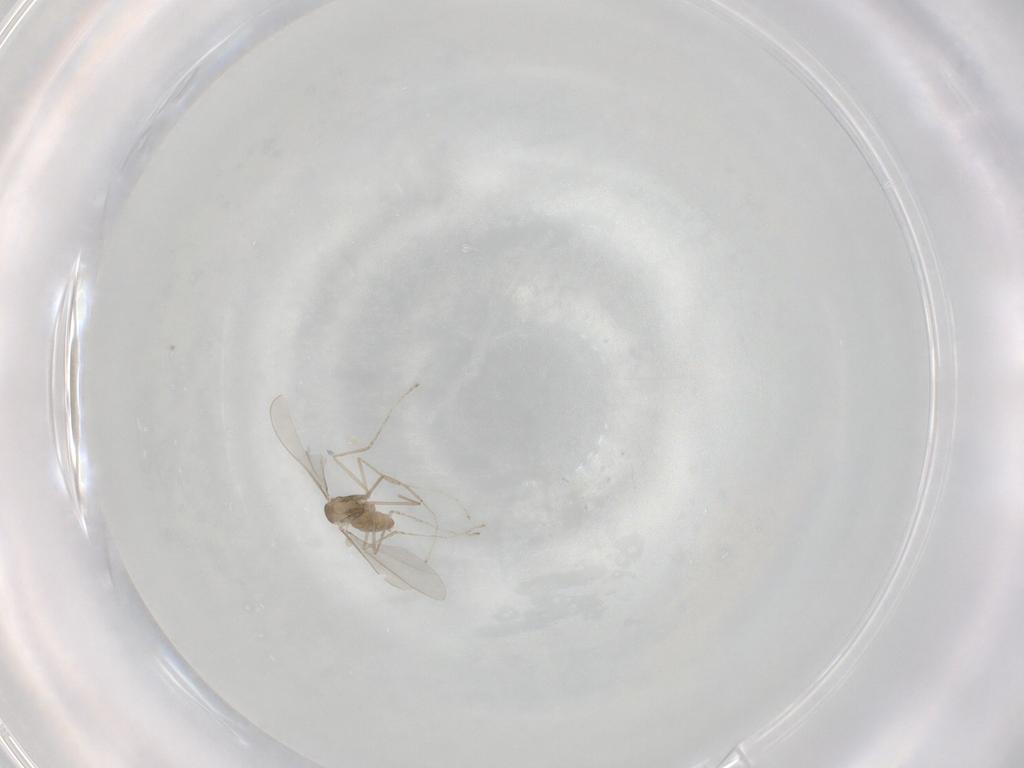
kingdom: Animalia
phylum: Arthropoda
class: Insecta
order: Diptera
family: Cecidomyiidae
